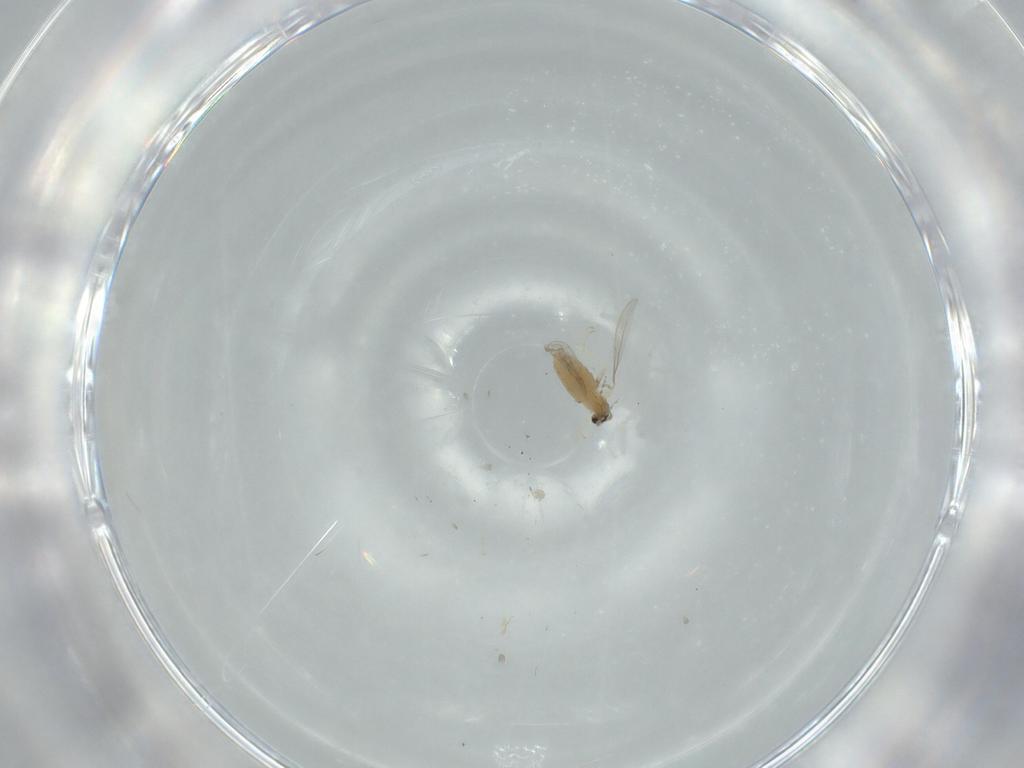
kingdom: Animalia
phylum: Arthropoda
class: Insecta
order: Diptera
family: Cecidomyiidae
